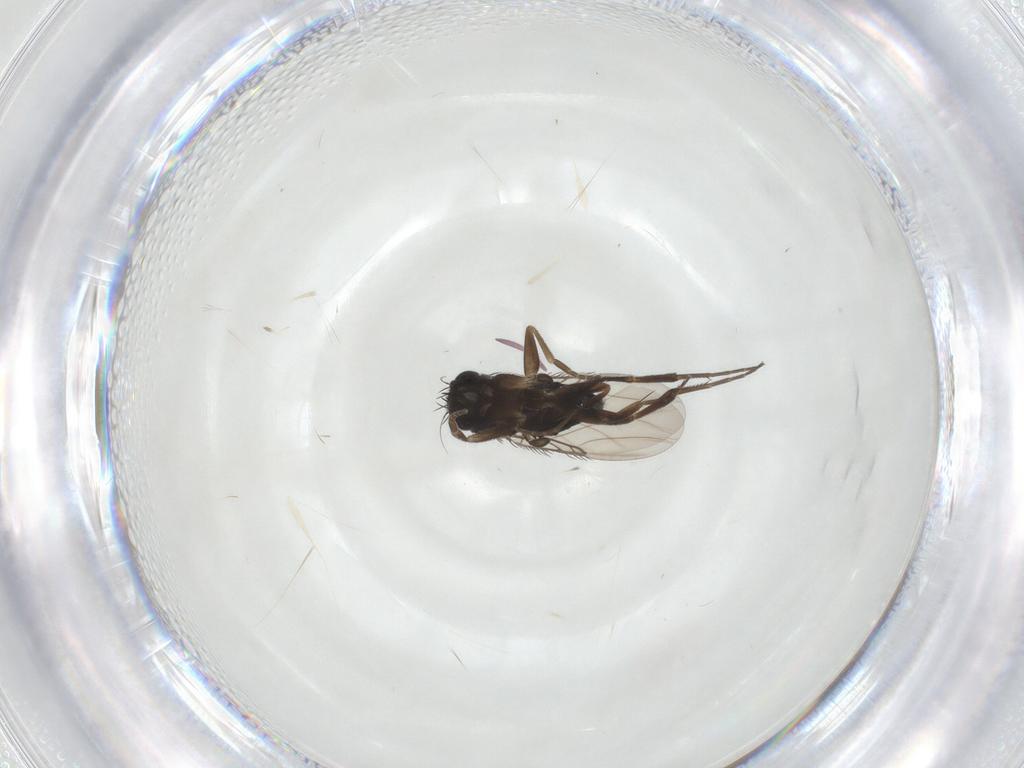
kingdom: Animalia
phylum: Arthropoda
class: Insecta
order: Diptera
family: Phoridae
